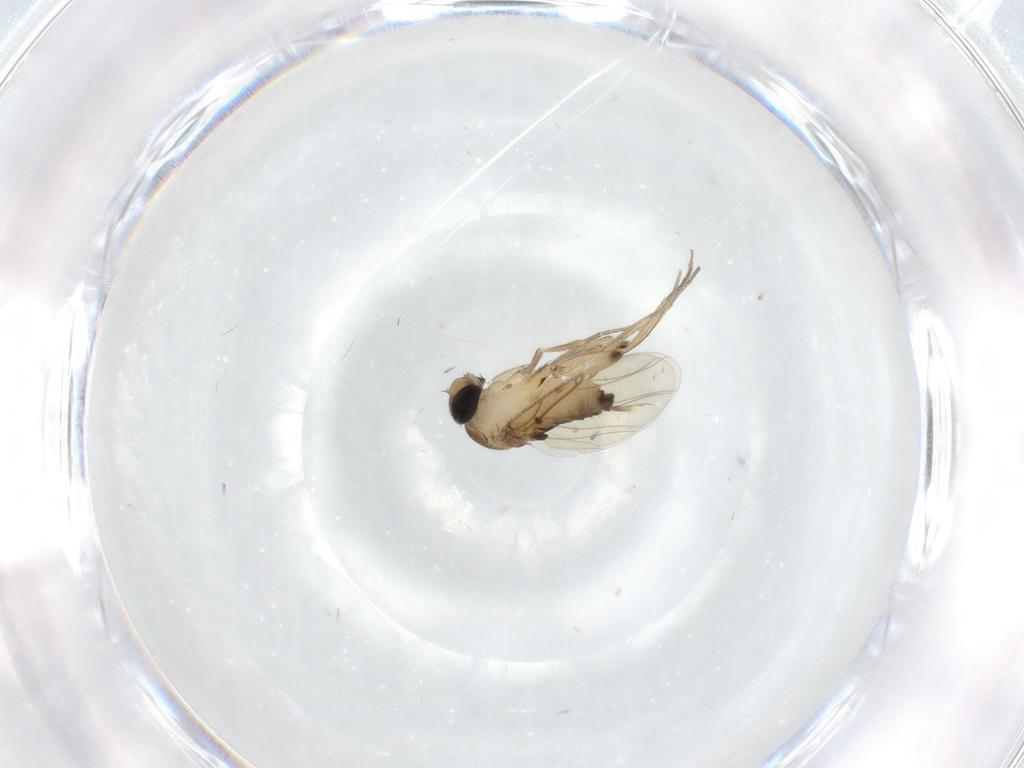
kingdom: Animalia
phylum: Arthropoda
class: Insecta
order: Diptera
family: Phoridae
